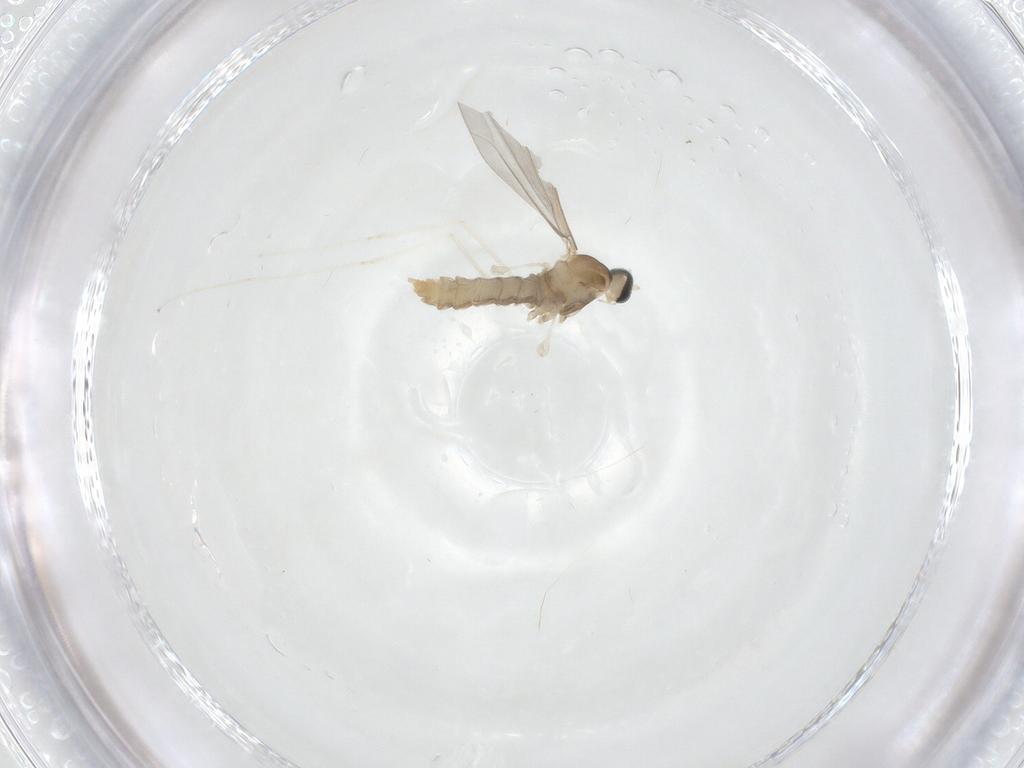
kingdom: Animalia
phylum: Arthropoda
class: Insecta
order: Diptera
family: Cecidomyiidae
